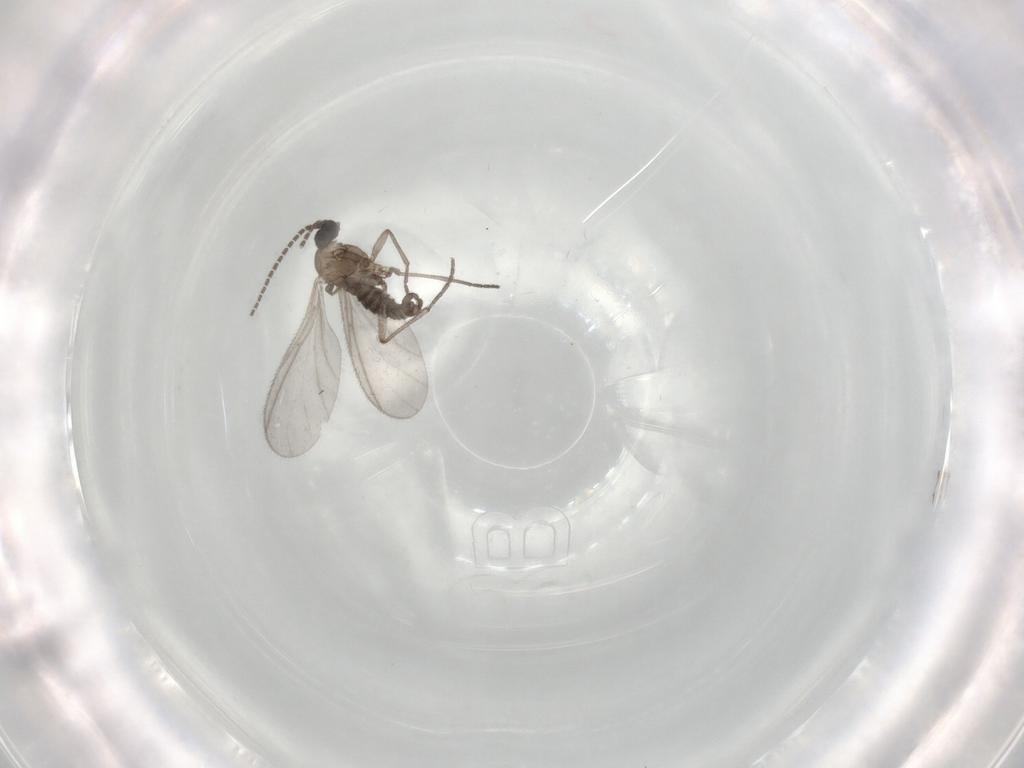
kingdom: Animalia
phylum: Arthropoda
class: Insecta
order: Diptera
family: Sciaridae
